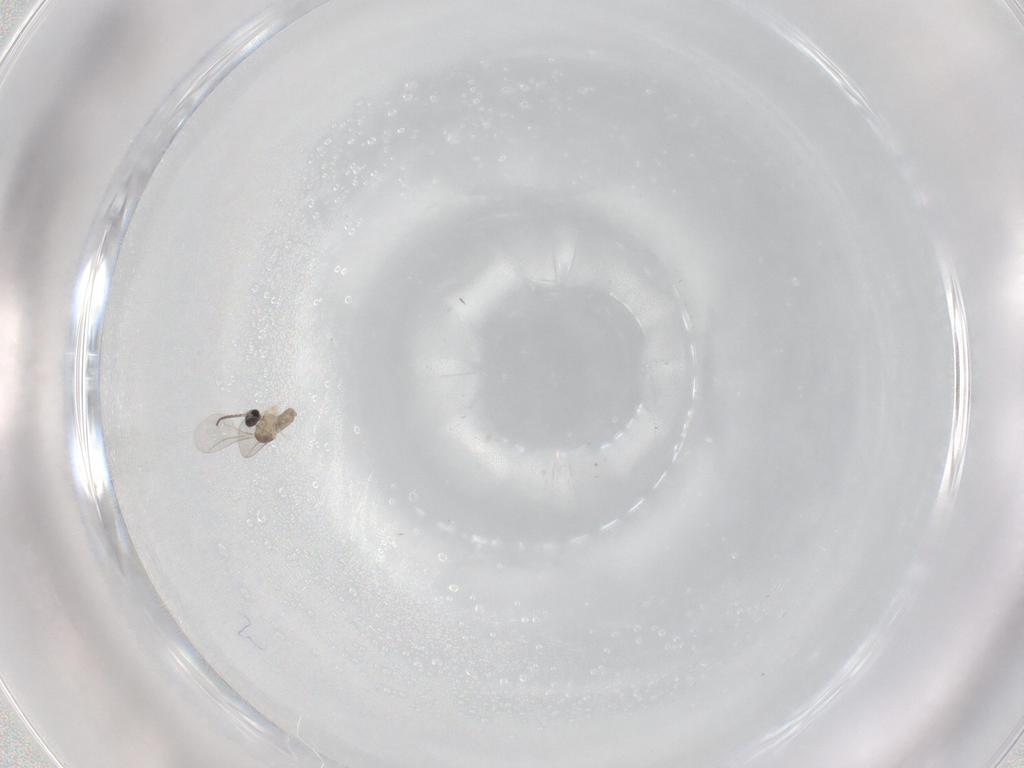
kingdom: Animalia
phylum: Arthropoda
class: Insecta
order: Diptera
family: Cecidomyiidae
